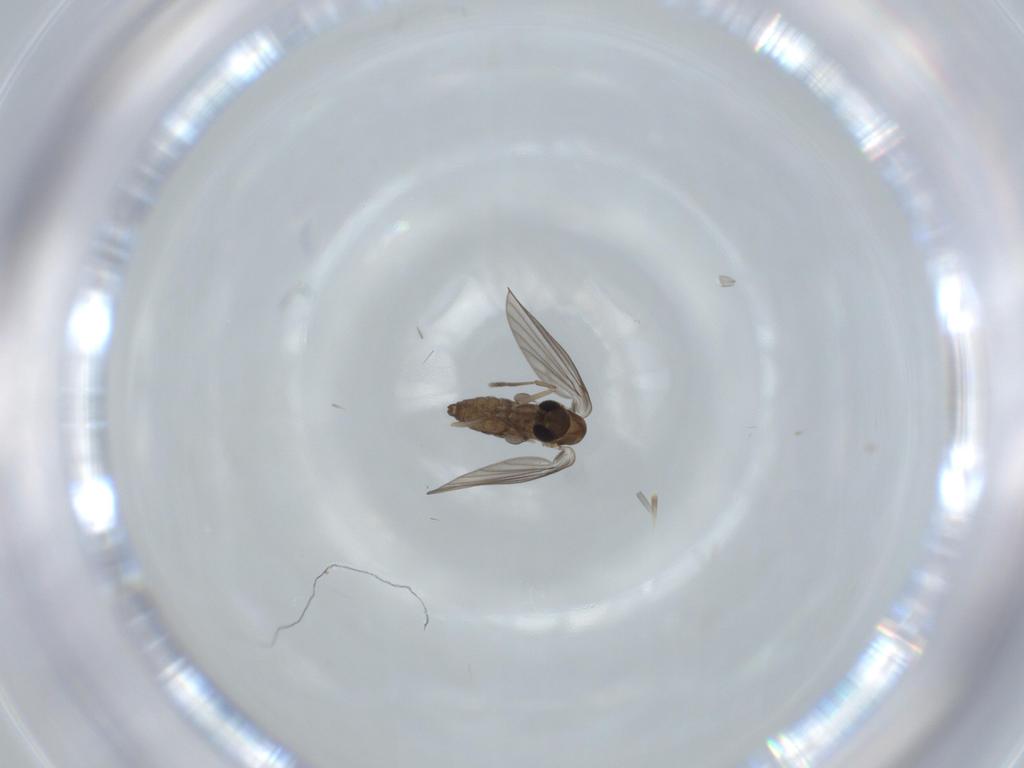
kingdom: Animalia
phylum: Arthropoda
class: Insecta
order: Diptera
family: Psychodidae
